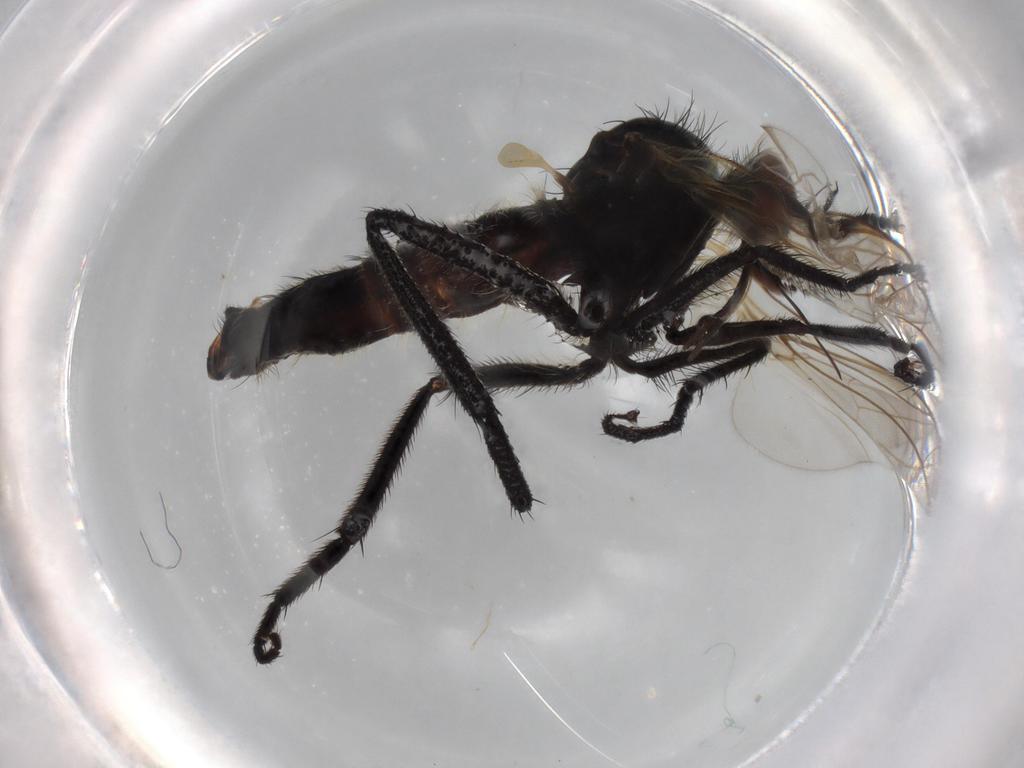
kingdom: Animalia
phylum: Arthropoda
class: Insecta
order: Diptera
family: Empididae
